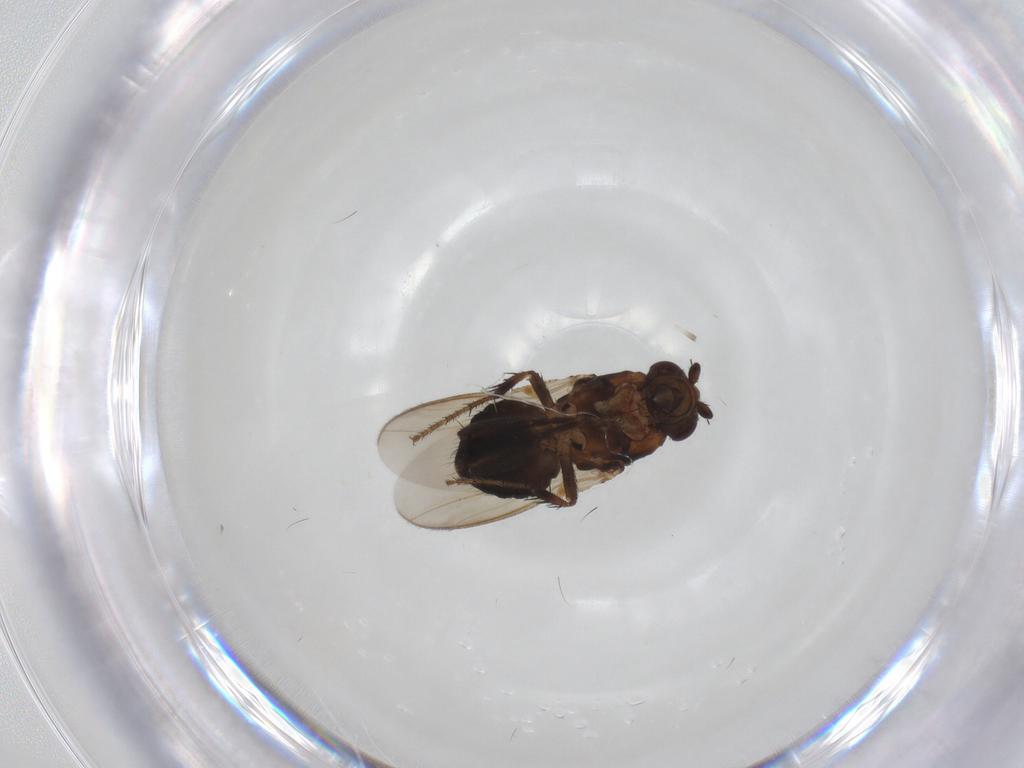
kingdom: Animalia
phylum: Arthropoda
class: Insecta
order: Diptera
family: Sphaeroceridae
